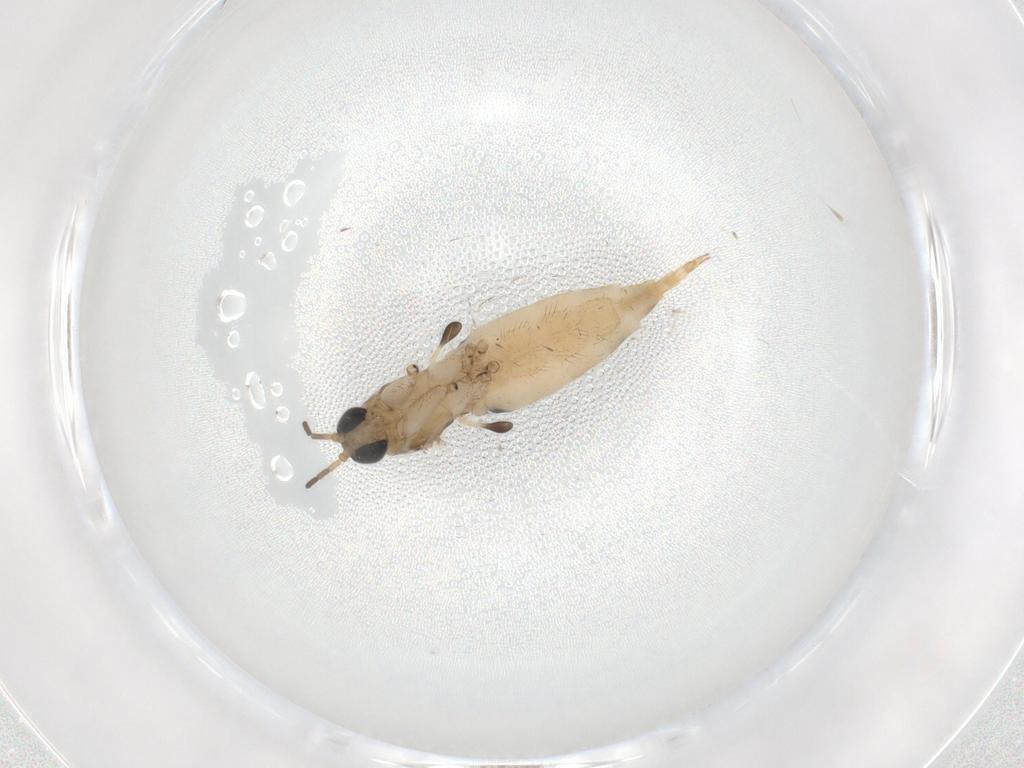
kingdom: Animalia
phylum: Arthropoda
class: Insecta
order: Diptera
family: Sciaridae
